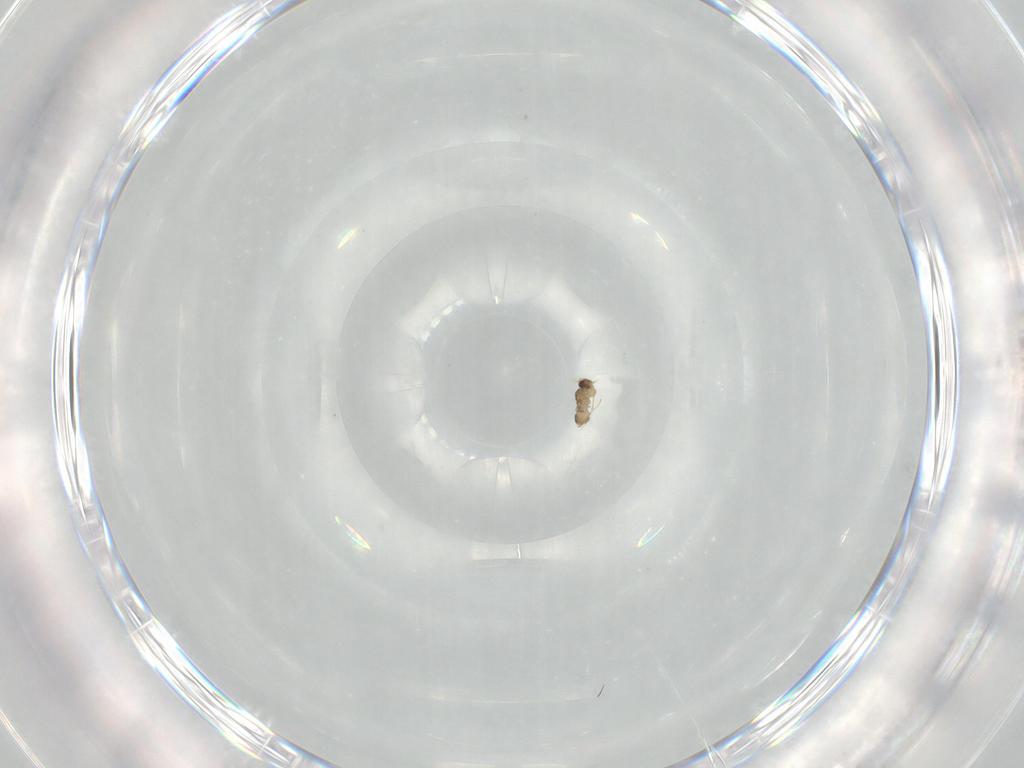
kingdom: Animalia
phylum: Arthropoda
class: Insecta
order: Hymenoptera
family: Mymaridae
